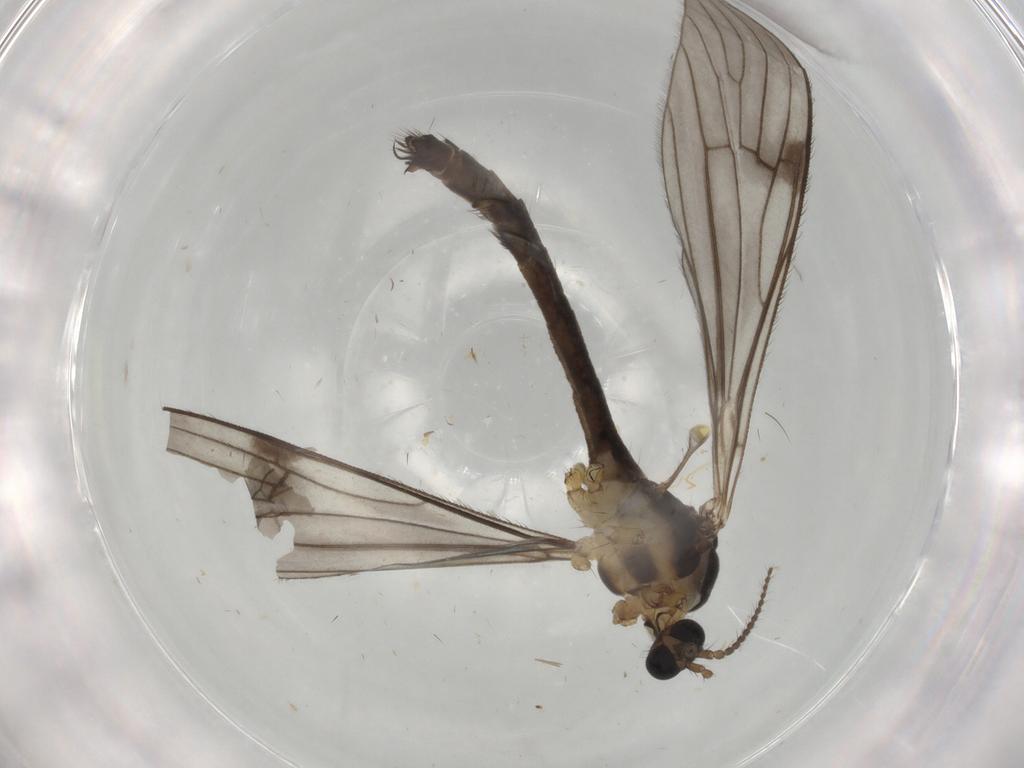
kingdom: Animalia
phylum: Arthropoda
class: Insecta
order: Diptera
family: Limoniidae
